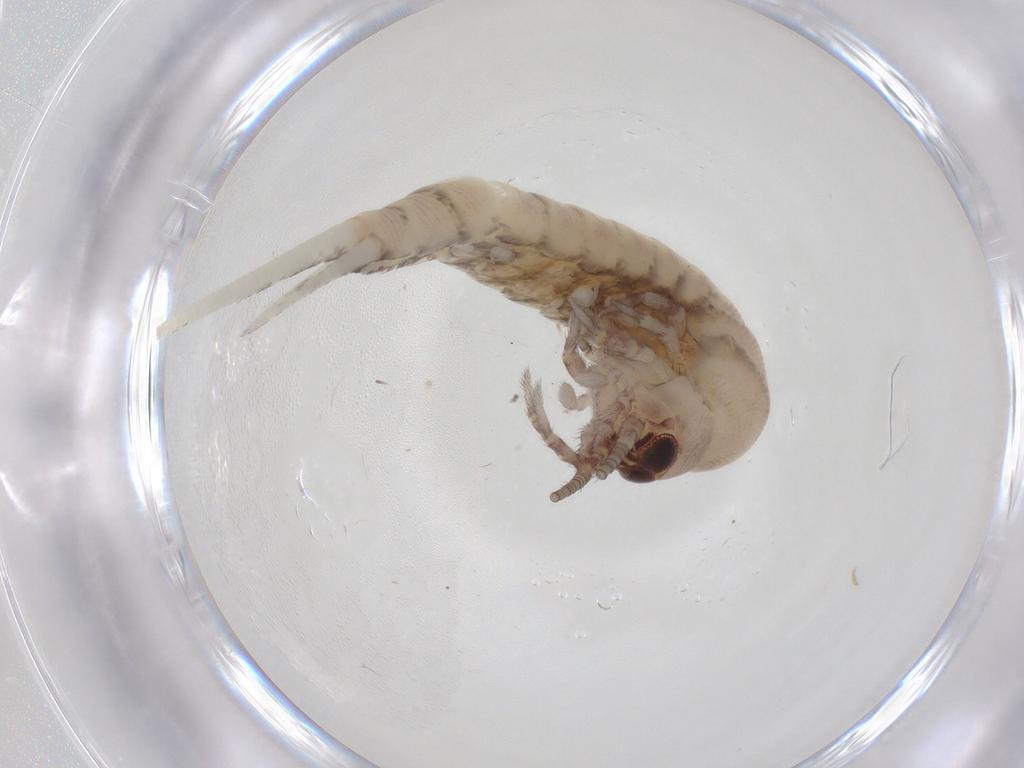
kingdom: Animalia
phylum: Arthropoda
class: Insecta
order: Archaeognatha
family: Machilidae
